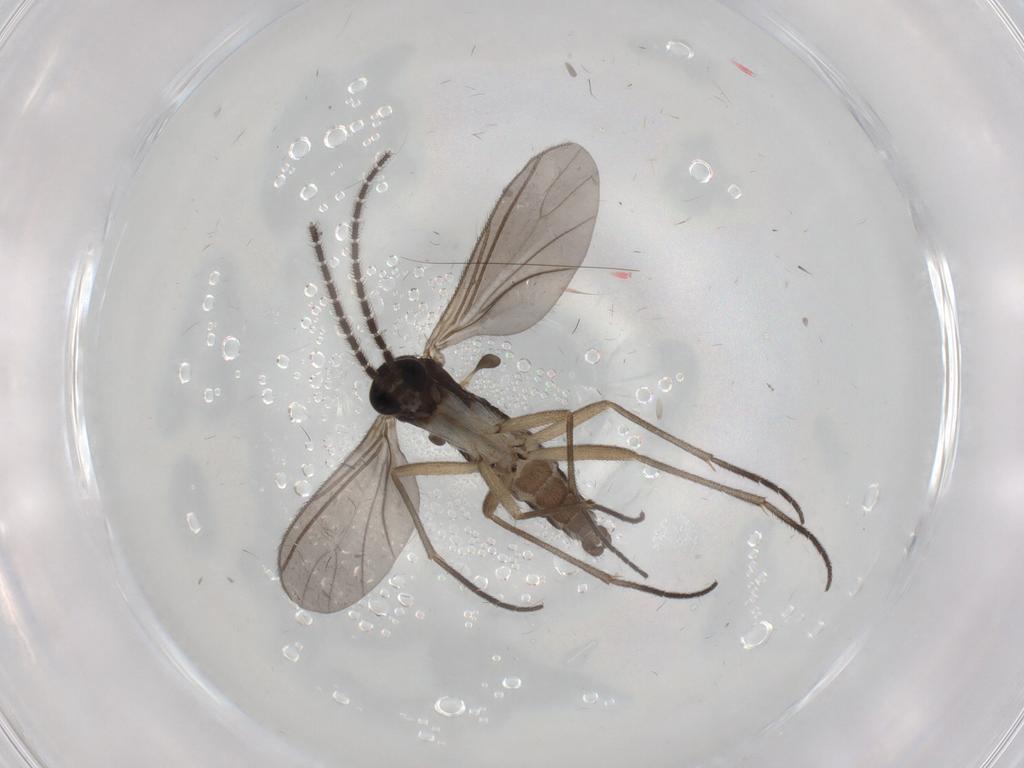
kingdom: Animalia
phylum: Arthropoda
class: Insecta
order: Diptera
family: Cecidomyiidae
